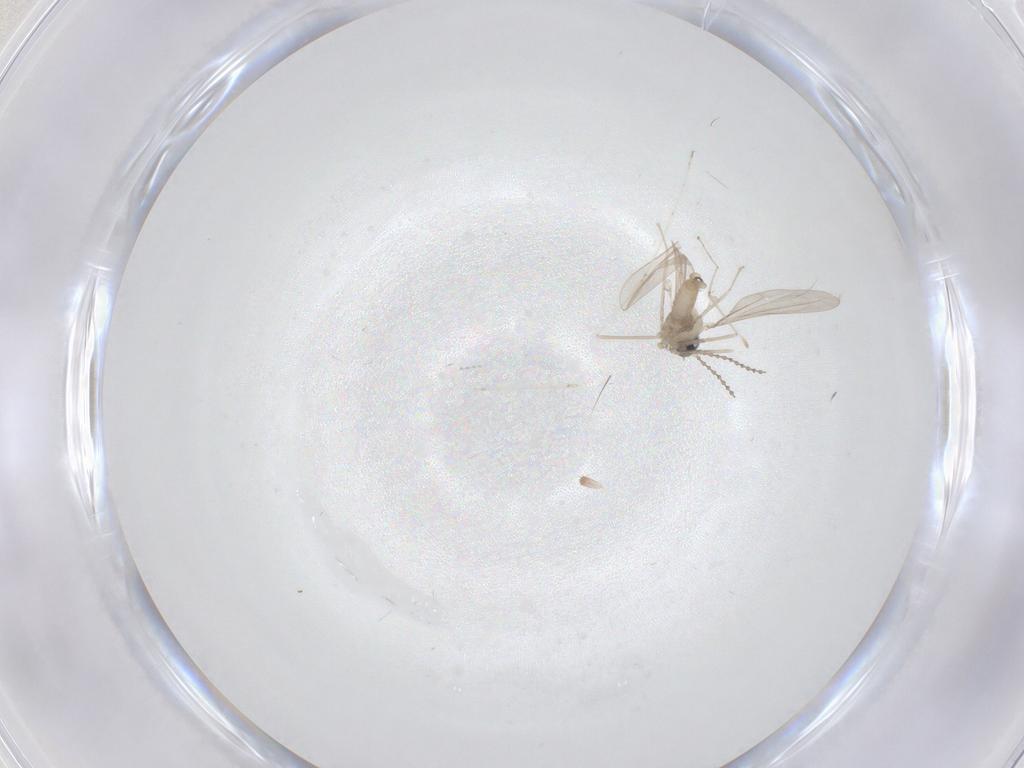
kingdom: Animalia
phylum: Arthropoda
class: Insecta
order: Diptera
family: Cecidomyiidae
